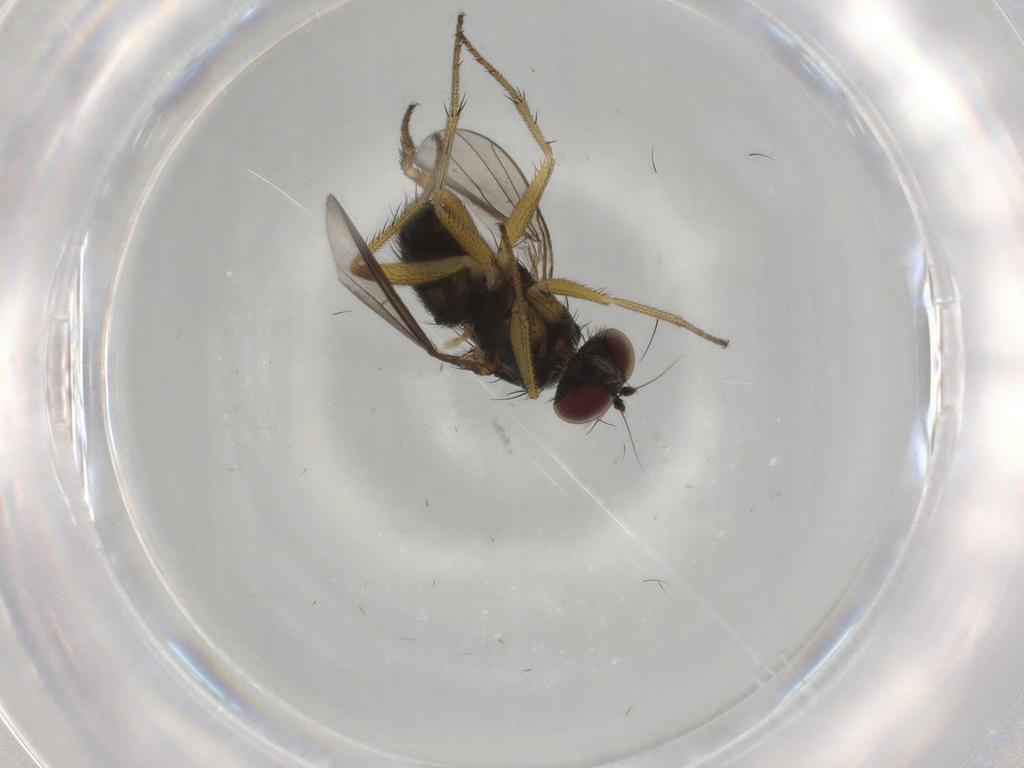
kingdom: Animalia
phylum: Arthropoda
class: Insecta
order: Diptera
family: Dolichopodidae
